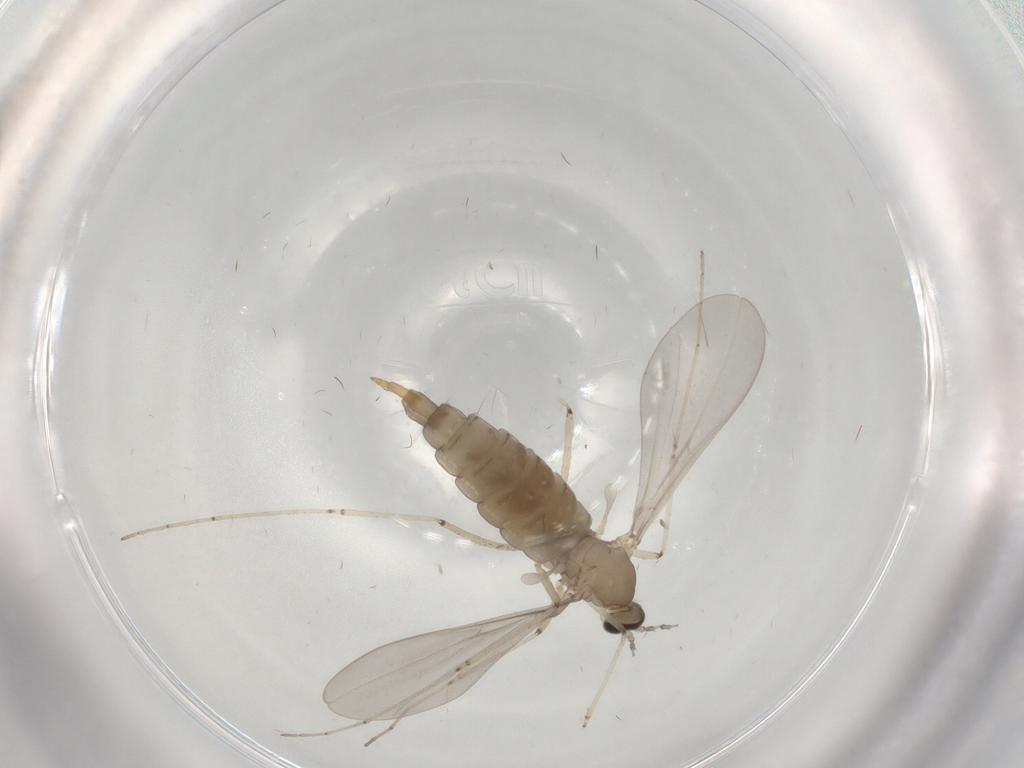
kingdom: Animalia
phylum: Arthropoda
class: Insecta
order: Diptera
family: Cecidomyiidae
